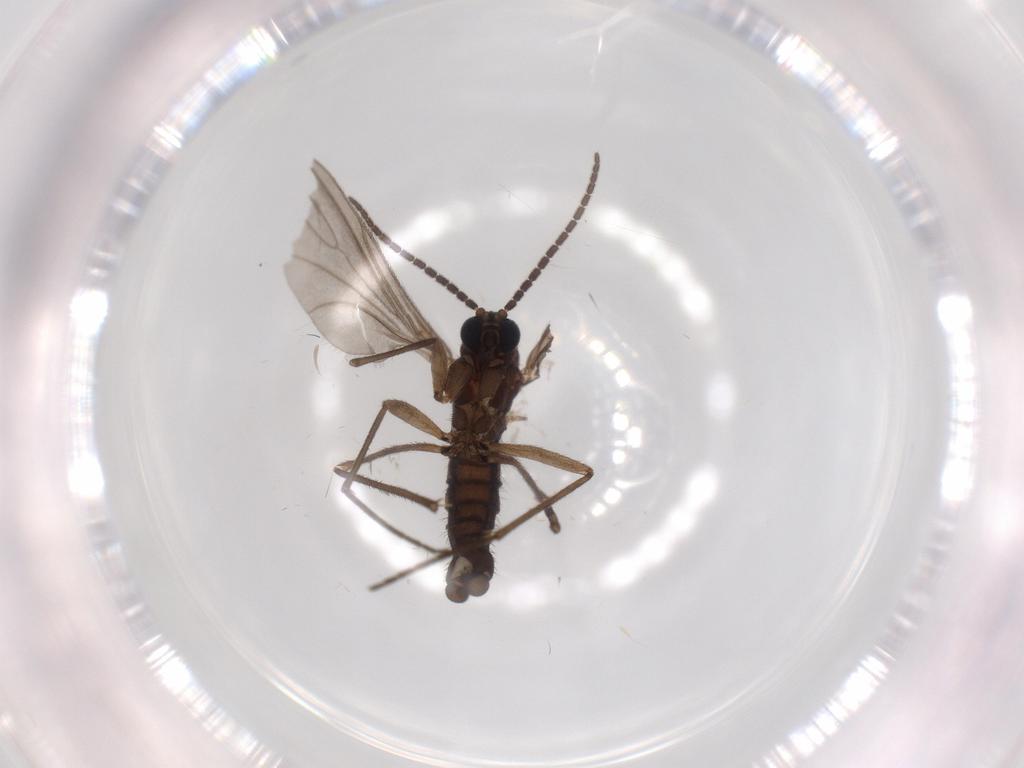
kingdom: Animalia
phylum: Arthropoda
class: Insecta
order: Diptera
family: Sciaridae
